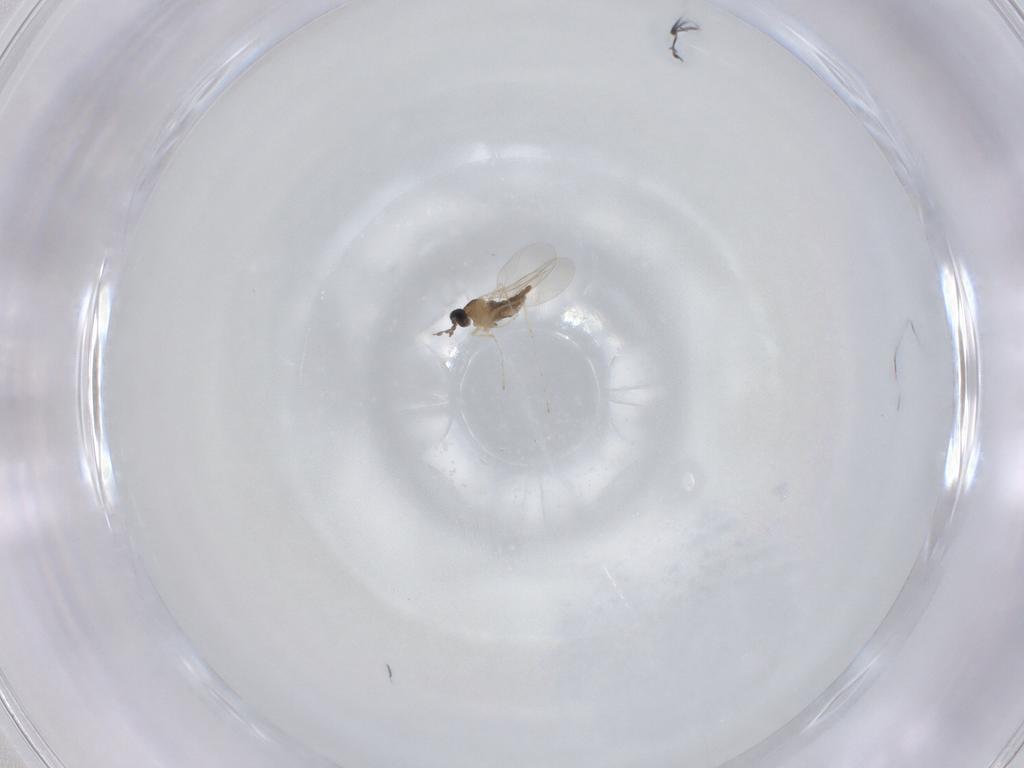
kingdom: Animalia
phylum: Arthropoda
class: Insecta
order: Diptera
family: Cecidomyiidae
